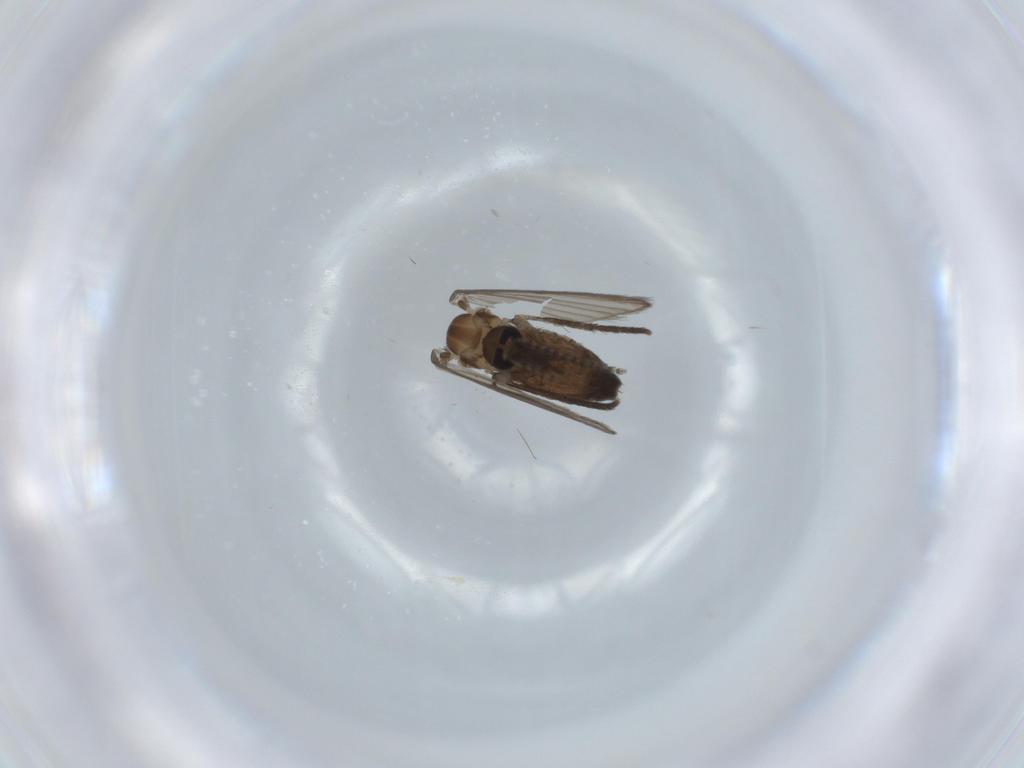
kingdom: Animalia
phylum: Arthropoda
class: Insecta
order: Diptera
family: Psychodidae
